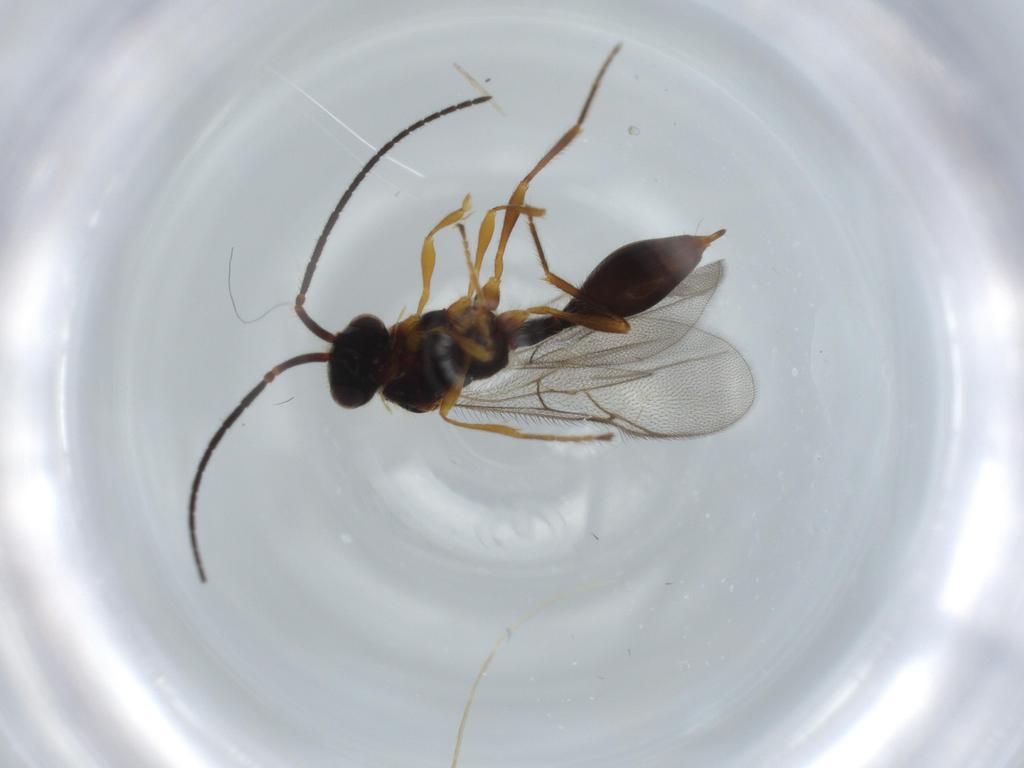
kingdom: Animalia
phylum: Arthropoda
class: Insecta
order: Hymenoptera
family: Diapriidae
